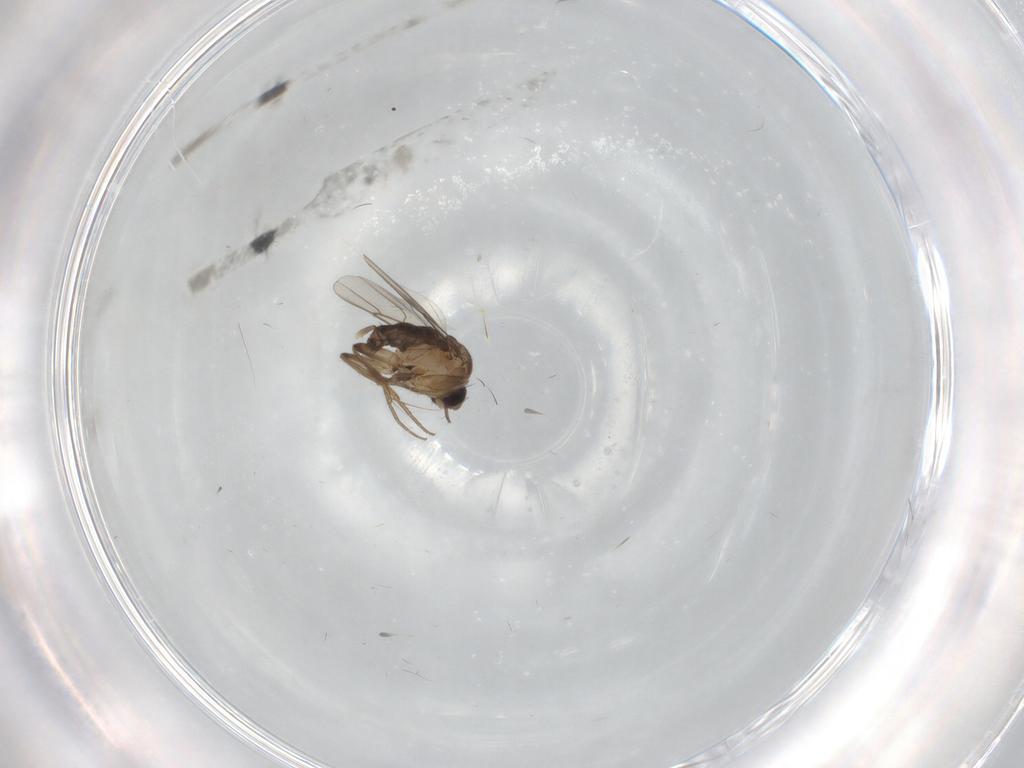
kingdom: Animalia
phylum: Arthropoda
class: Insecta
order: Diptera
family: Phoridae
